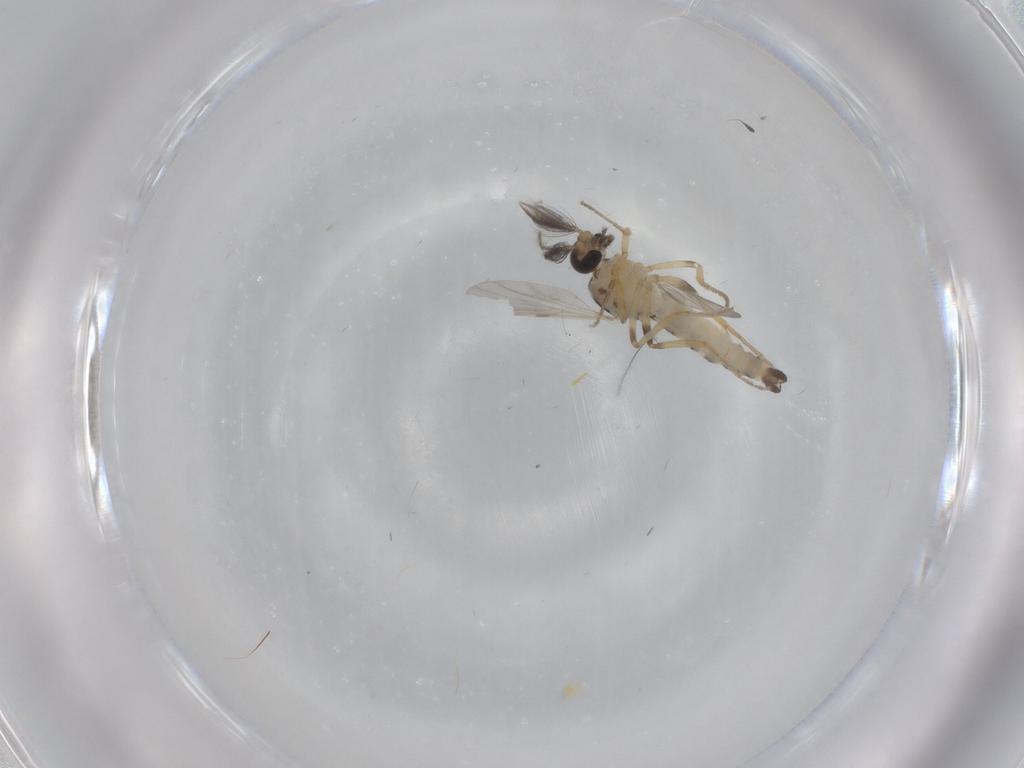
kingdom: Animalia
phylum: Arthropoda
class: Insecta
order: Diptera
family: Ceratopogonidae
